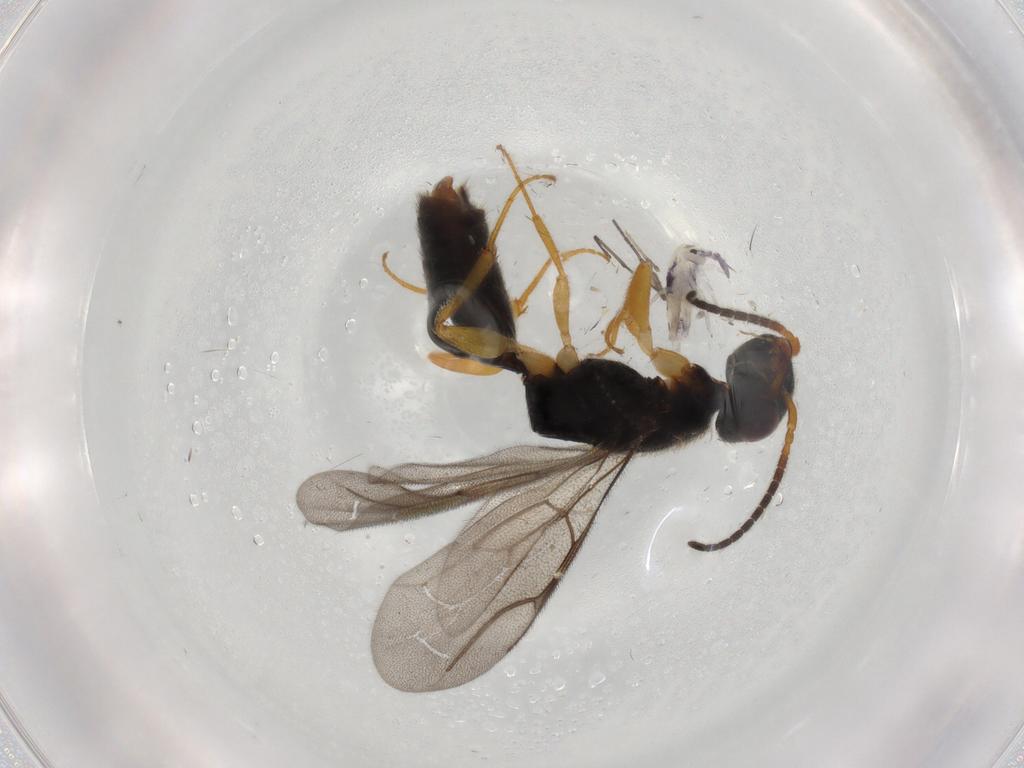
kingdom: Animalia
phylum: Arthropoda
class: Insecta
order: Hymenoptera
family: Bethylidae
